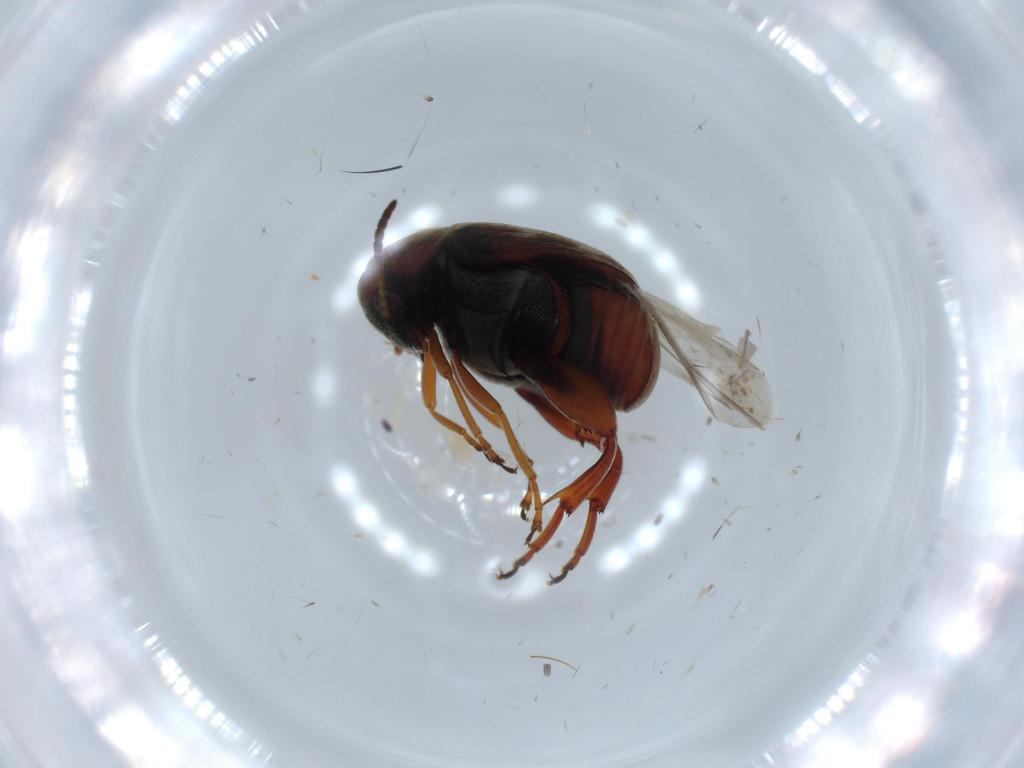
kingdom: Animalia
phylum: Arthropoda
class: Insecta
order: Coleoptera
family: Chrysomelidae
